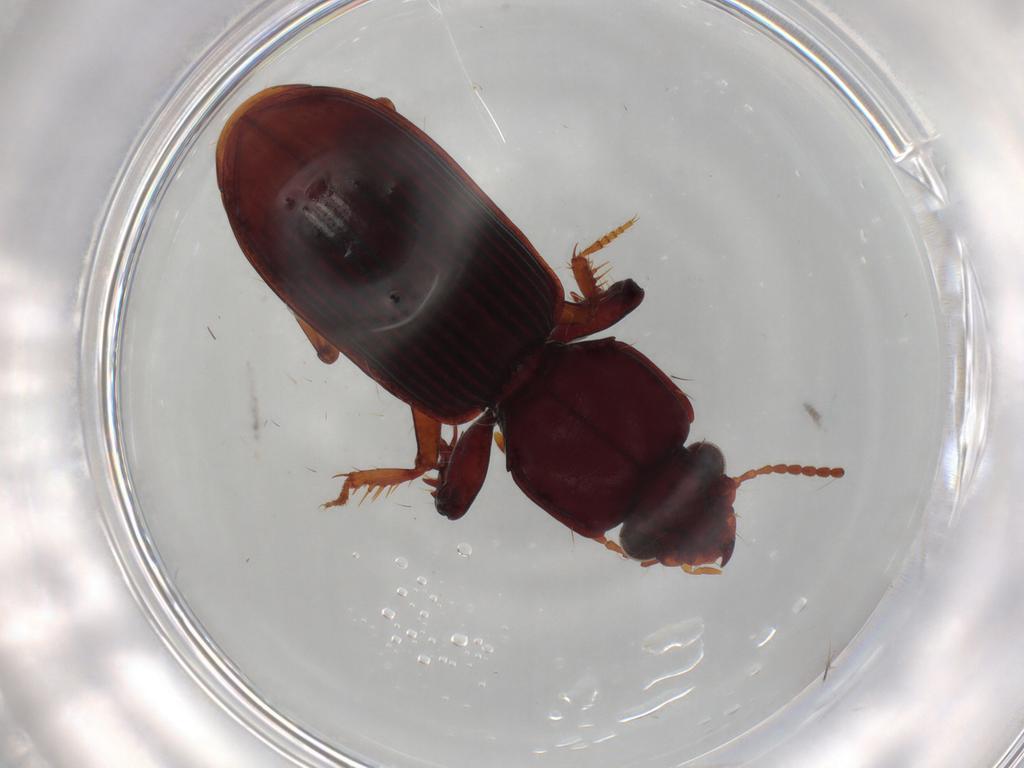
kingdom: Animalia
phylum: Arthropoda
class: Insecta
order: Coleoptera
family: Carabidae
